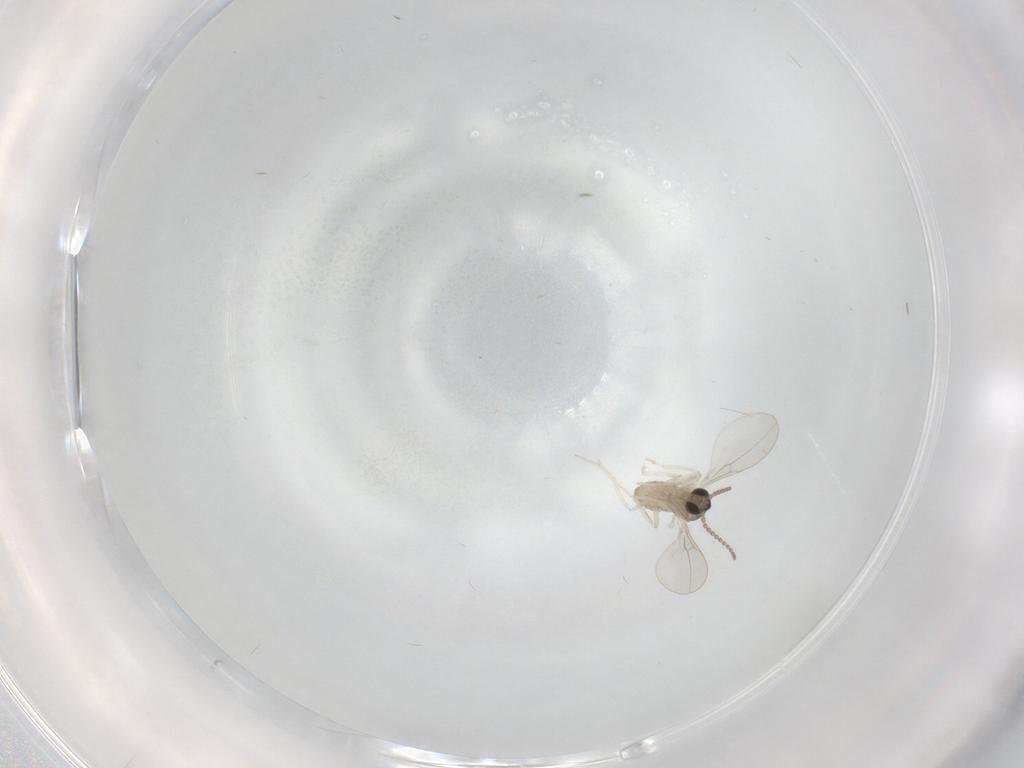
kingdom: Animalia
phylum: Arthropoda
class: Insecta
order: Diptera
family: Cecidomyiidae
